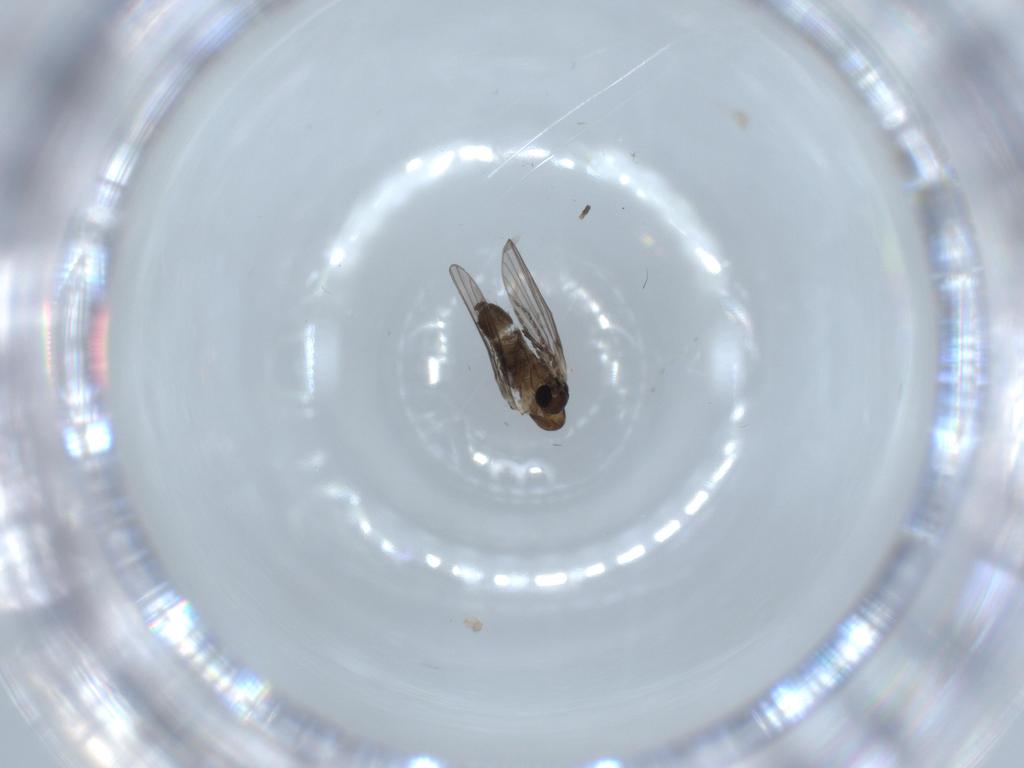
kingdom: Animalia
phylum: Arthropoda
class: Insecta
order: Diptera
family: Psychodidae
